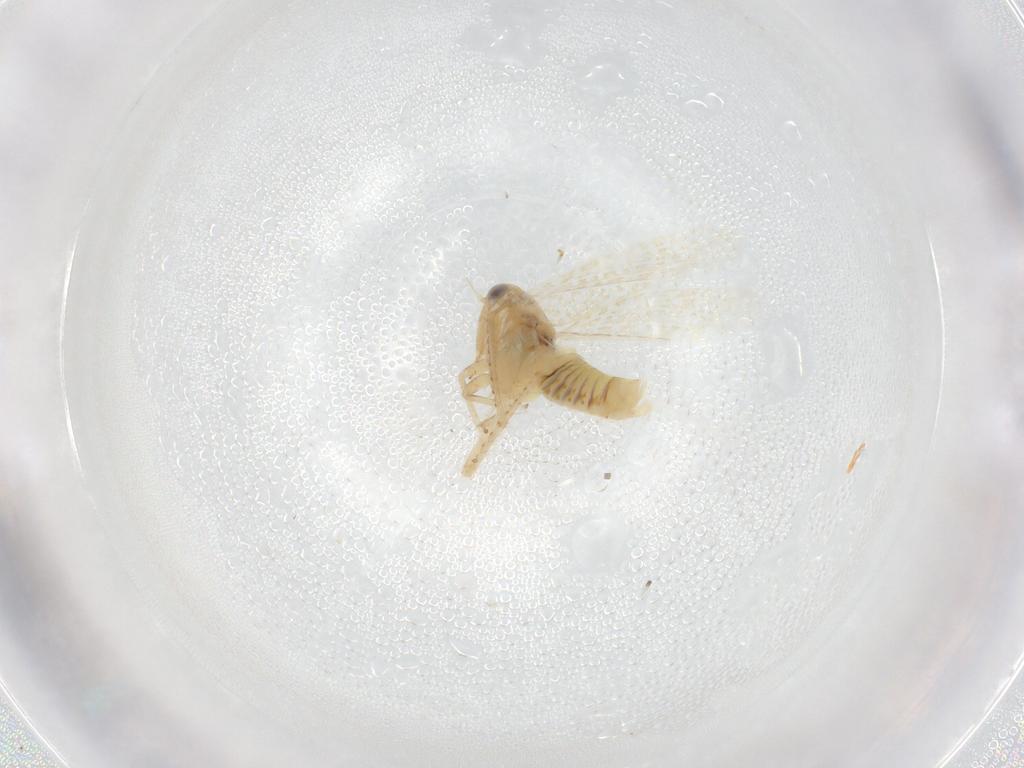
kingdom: Animalia
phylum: Arthropoda
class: Insecta
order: Hemiptera
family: Cicadellidae
